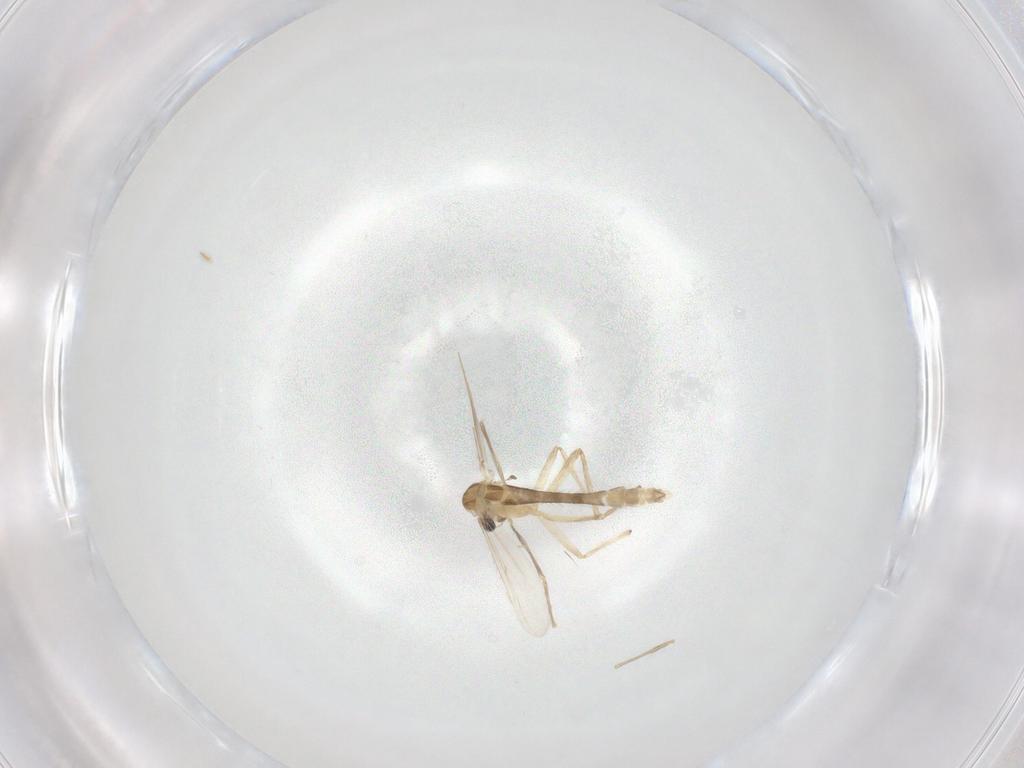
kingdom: Animalia
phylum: Arthropoda
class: Insecta
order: Diptera
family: Chironomidae
